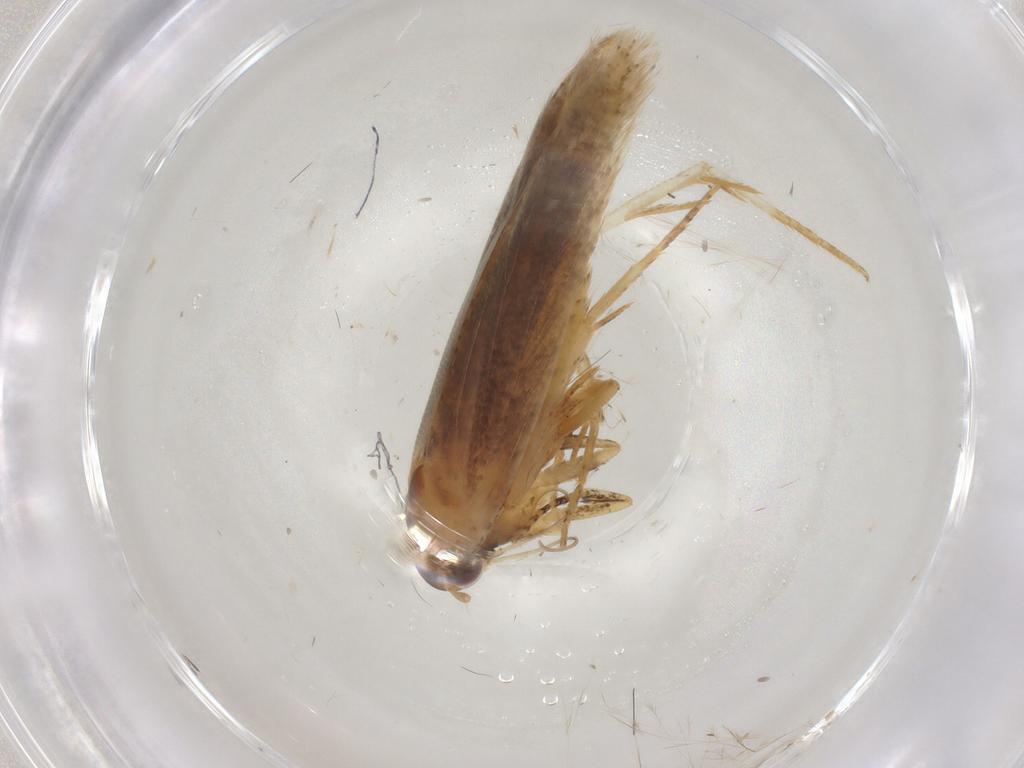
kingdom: Animalia
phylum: Arthropoda
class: Insecta
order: Lepidoptera
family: Gelechiidae
